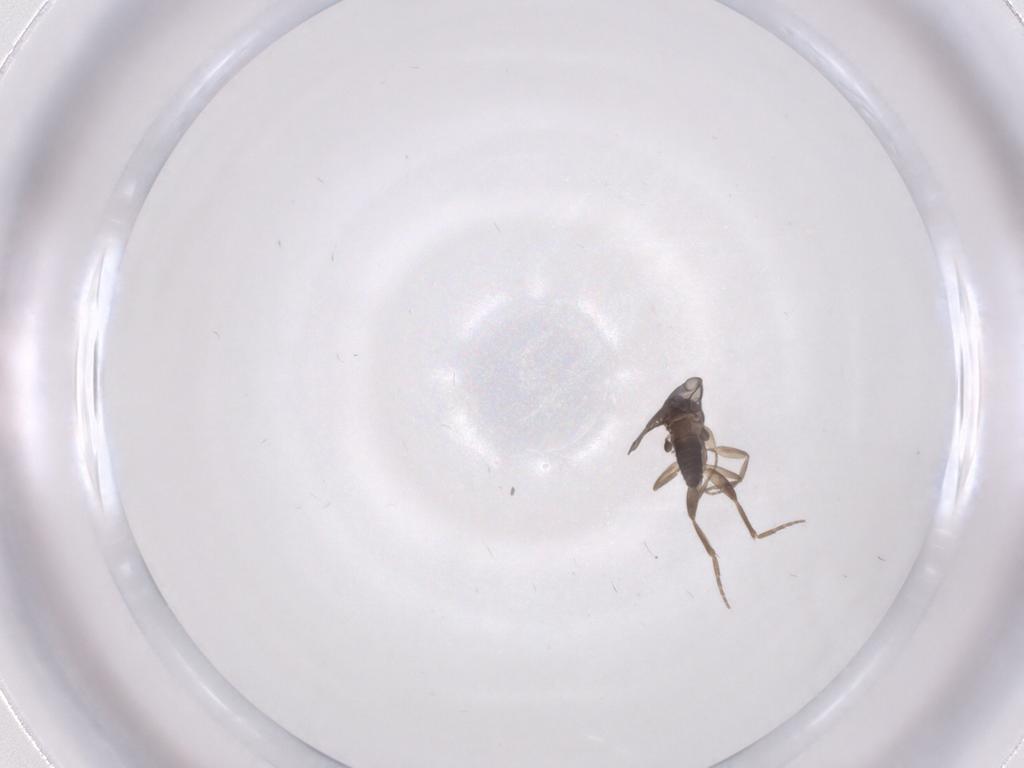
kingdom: Animalia
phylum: Arthropoda
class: Insecta
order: Diptera
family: Phoridae
